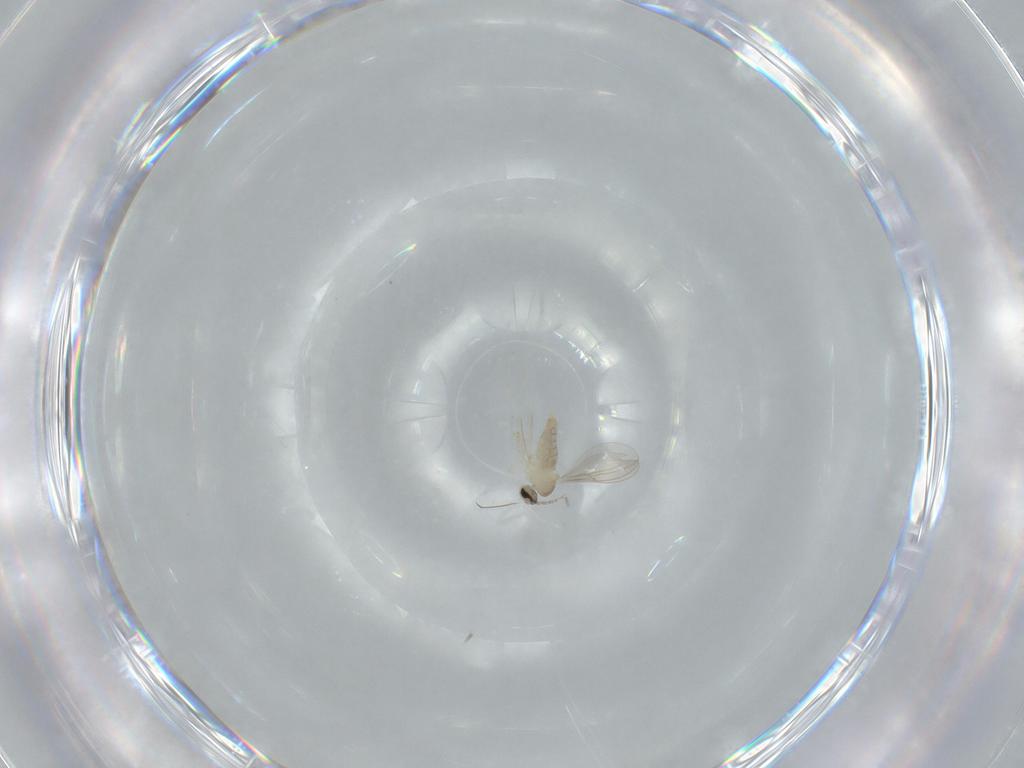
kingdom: Animalia
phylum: Arthropoda
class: Insecta
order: Diptera
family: Cecidomyiidae
